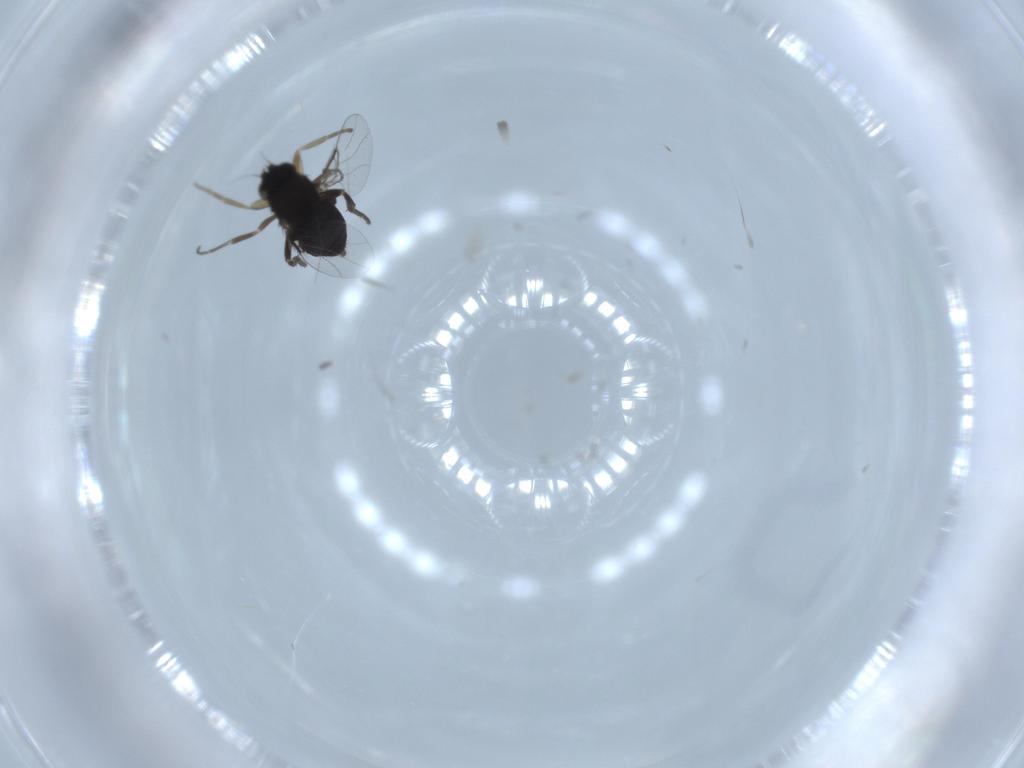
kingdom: Animalia
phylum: Arthropoda
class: Insecta
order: Diptera
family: Phoridae
